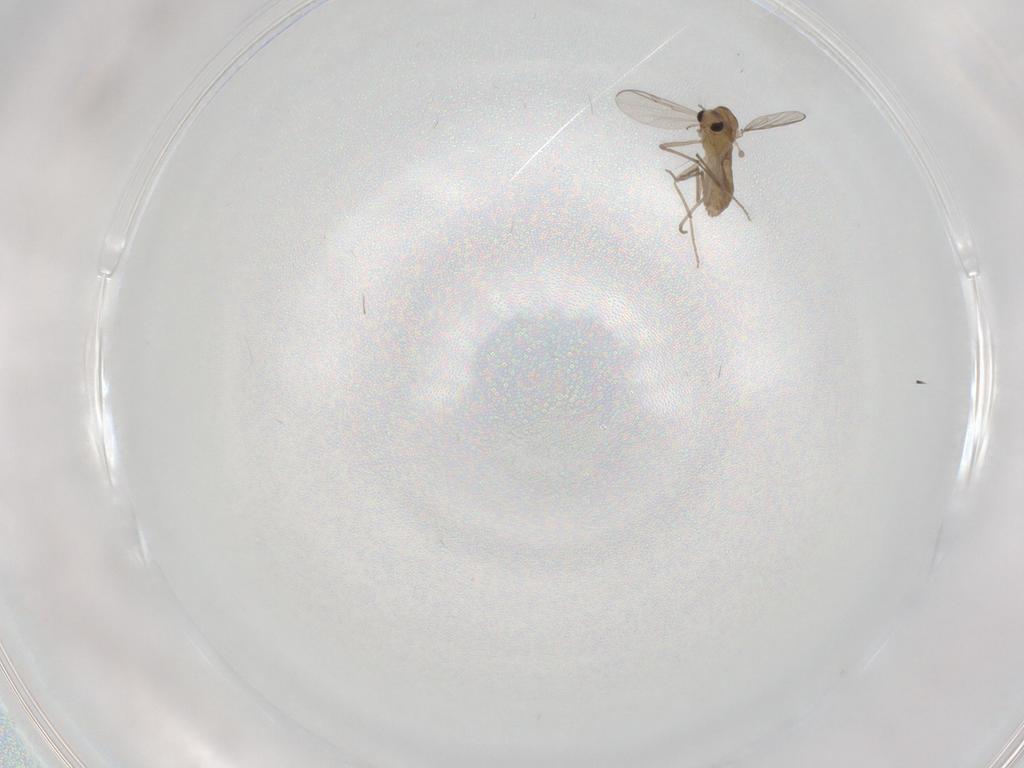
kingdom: Animalia
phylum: Arthropoda
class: Insecta
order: Diptera
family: Chironomidae
